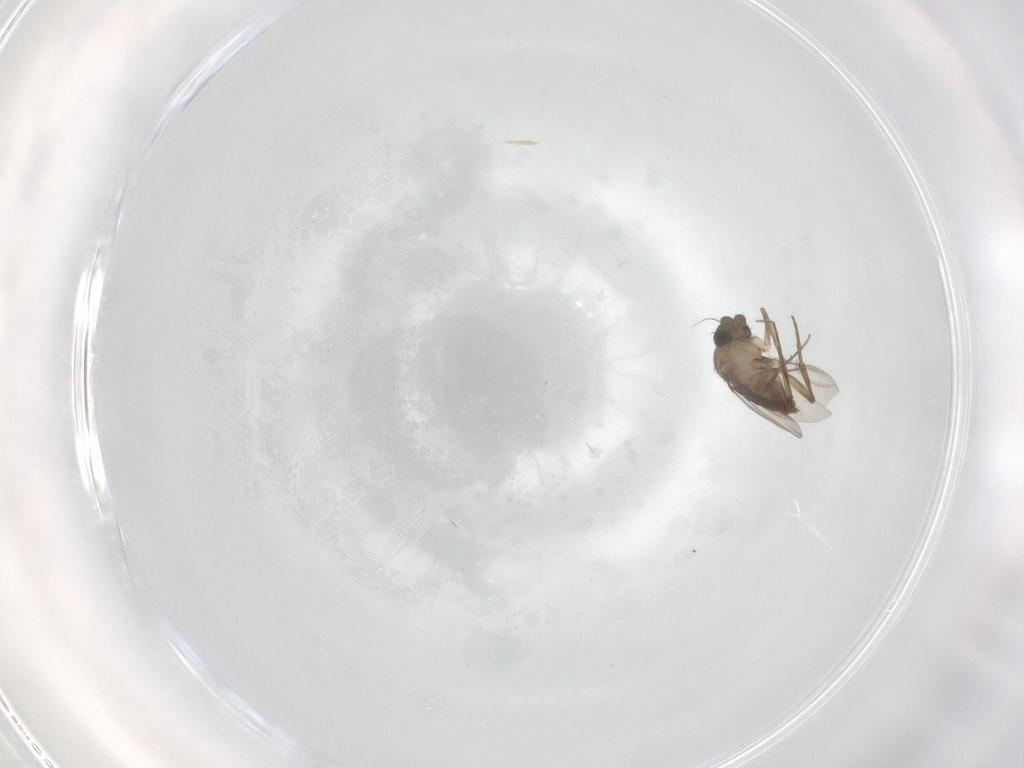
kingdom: Animalia
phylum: Arthropoda
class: Insecta
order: Diptera
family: Phoridae
